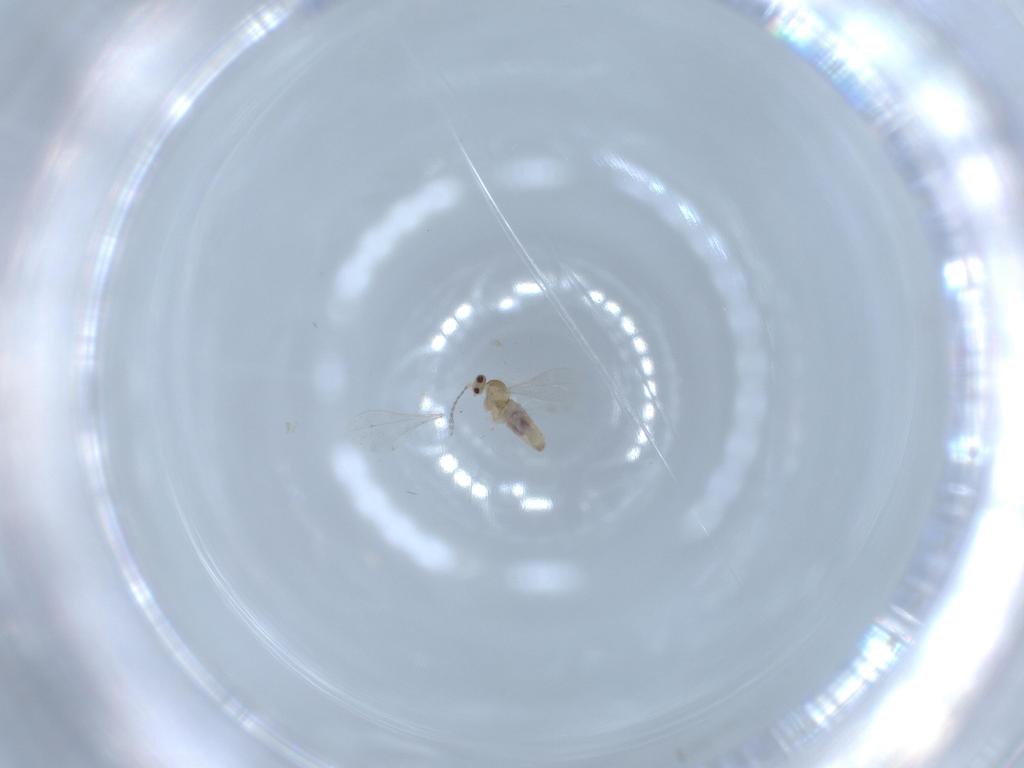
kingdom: Animalia
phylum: Arthropoda
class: Insecta
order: Diptera
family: Cecidomyiidae
